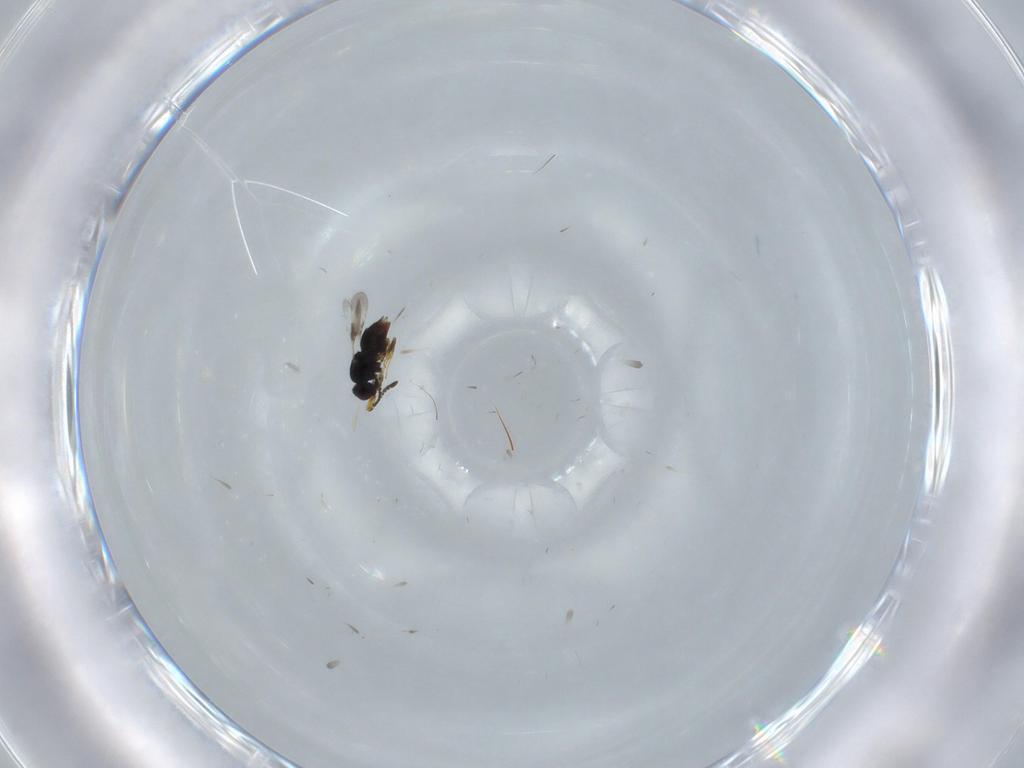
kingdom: Animalia
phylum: Arthropoda
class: Insecta
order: Hymenoptera
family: Ceraphronidae
